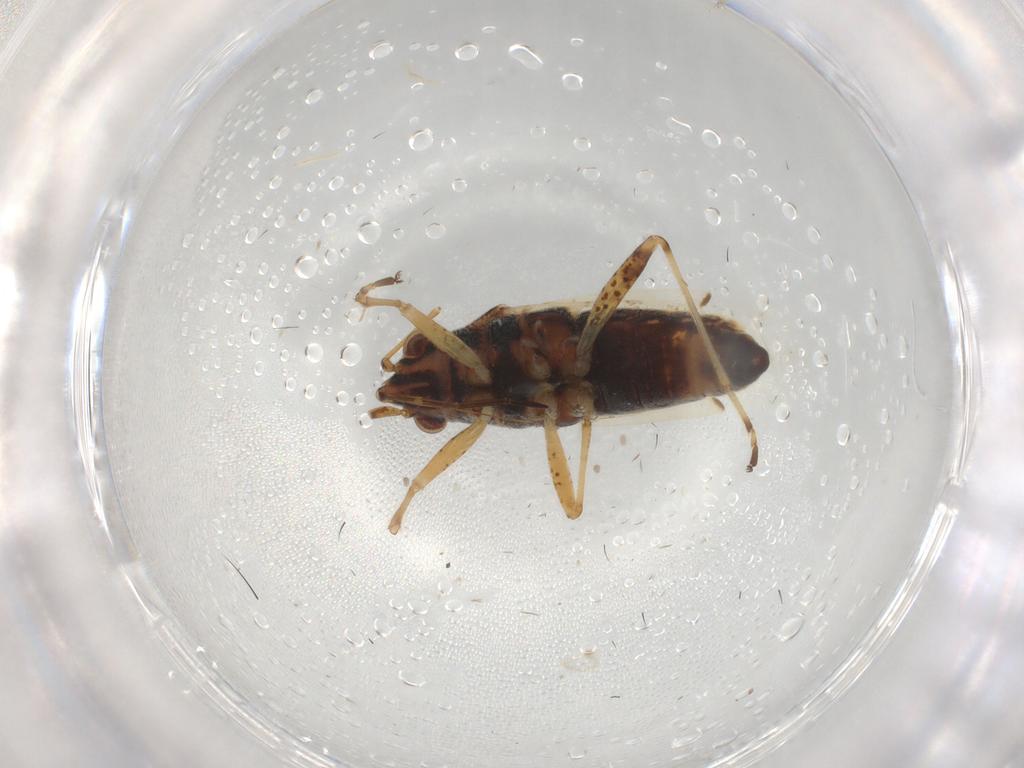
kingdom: Animalia
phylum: Arthropoda
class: Insecta
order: Hemiptera
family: Lygaeidae
